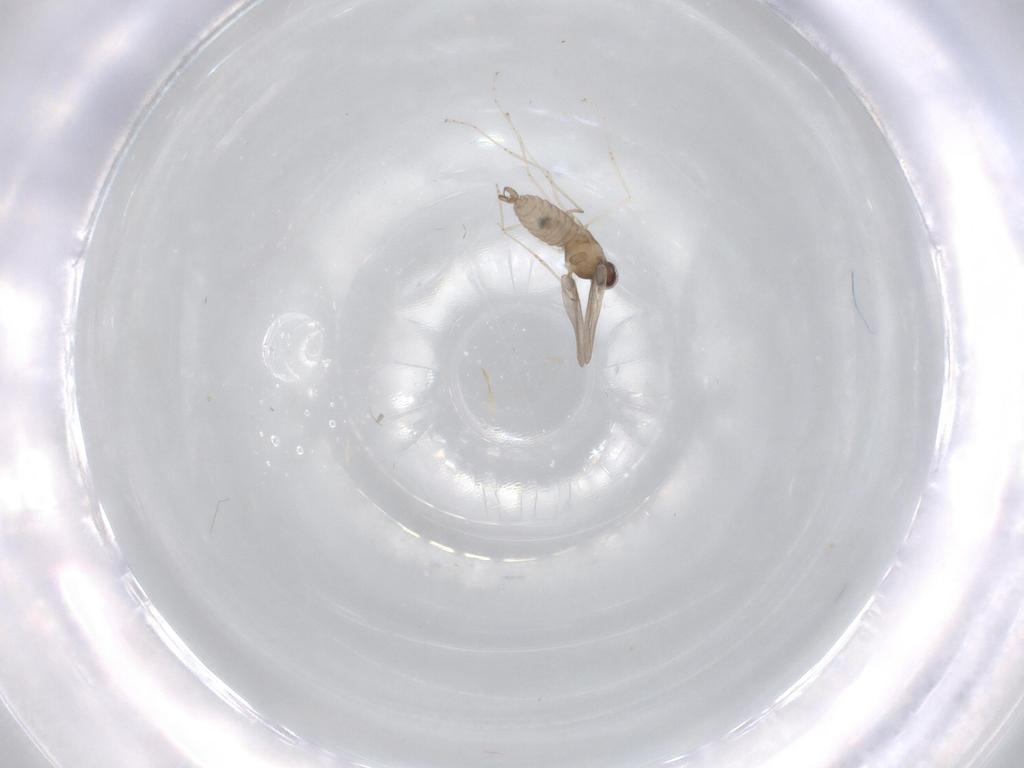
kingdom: Animalia
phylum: Arthropoda
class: Insecta
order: Diptera
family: Cecidomyiidae
